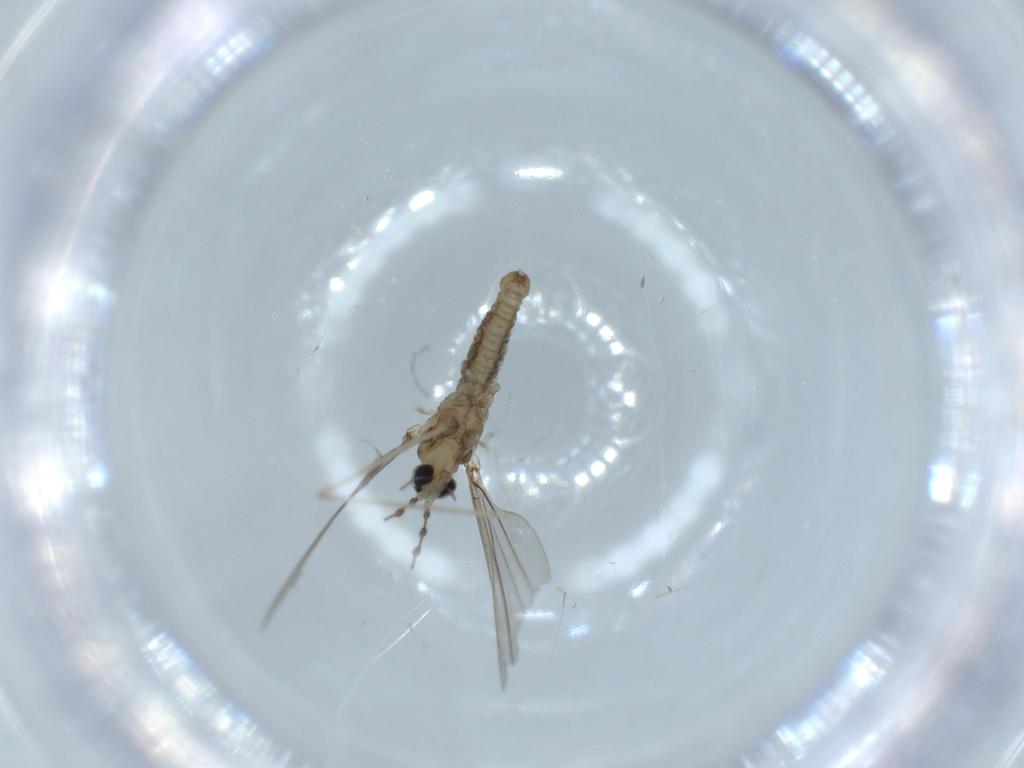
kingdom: Animalia
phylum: Arthropoda
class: Insecta
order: Diptera
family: Cecidomyiidae
